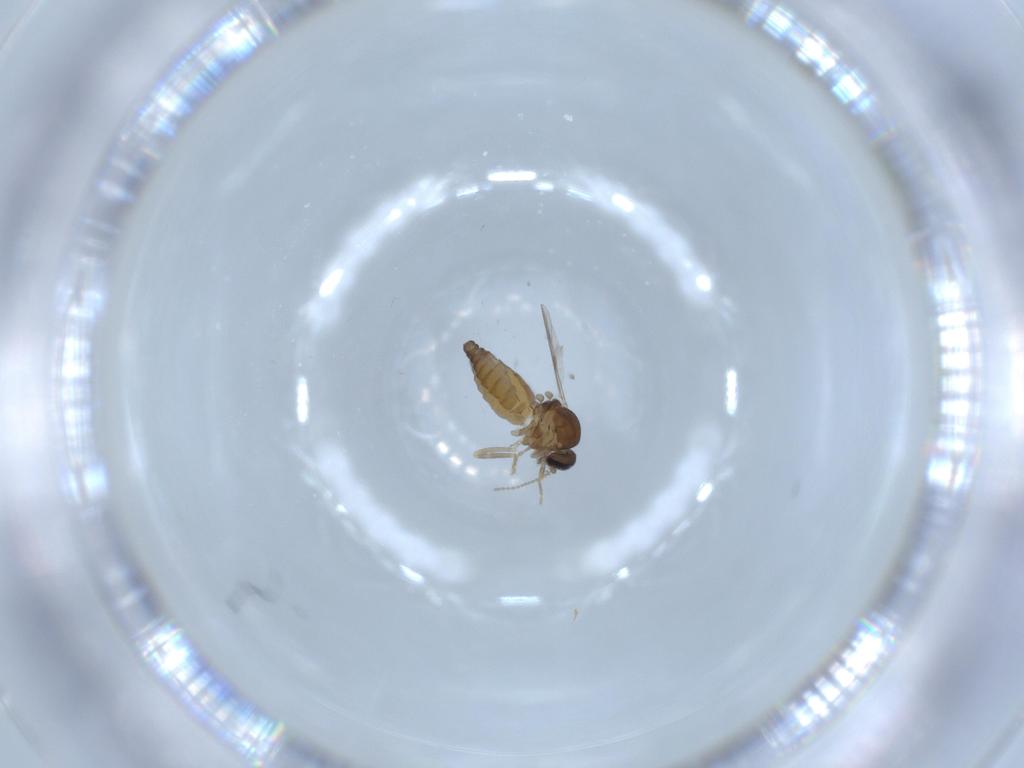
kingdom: Animalia
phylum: Arthropoda
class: Insecta
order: Diptera
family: Ceratopogonidae
